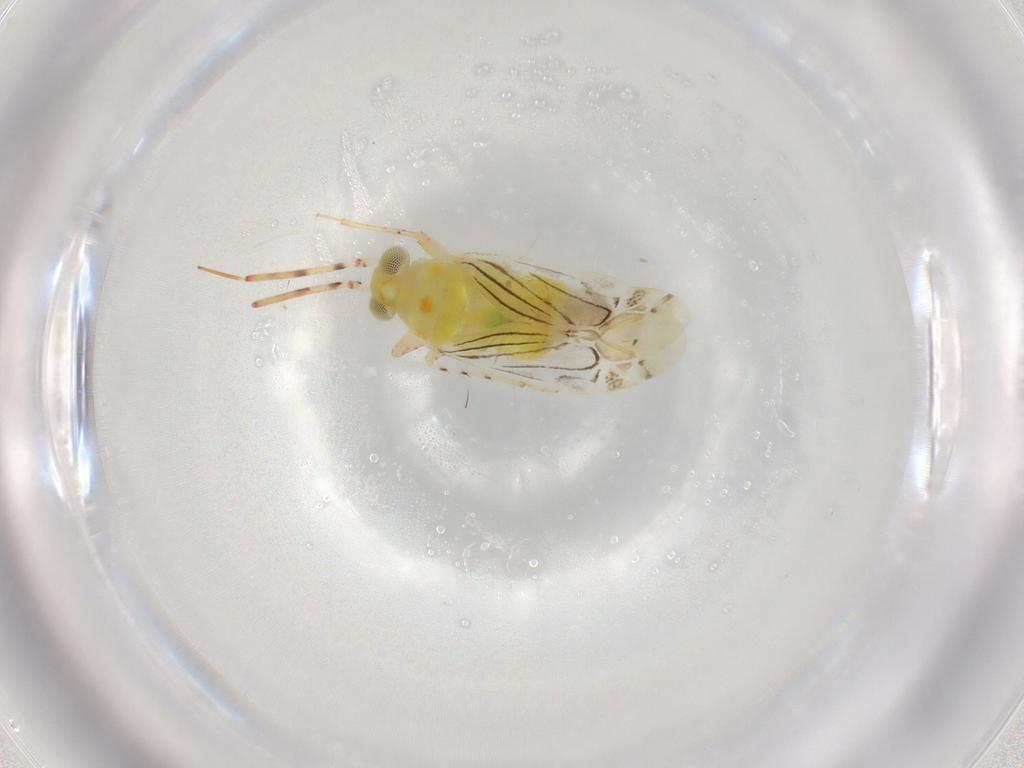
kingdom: Animalia
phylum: Arthropoda
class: Insecta
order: Hemiptera
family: Miridae
